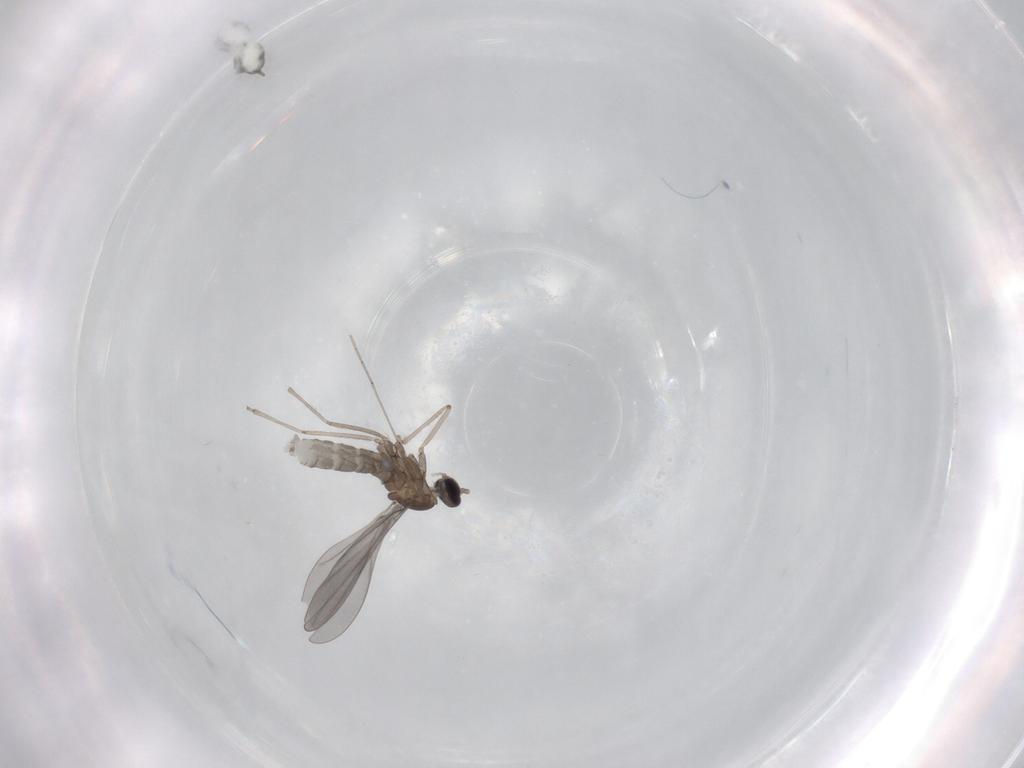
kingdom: Animalia
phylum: Arthropoda
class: Insecta
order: Diptera
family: Cecidomyiidae
